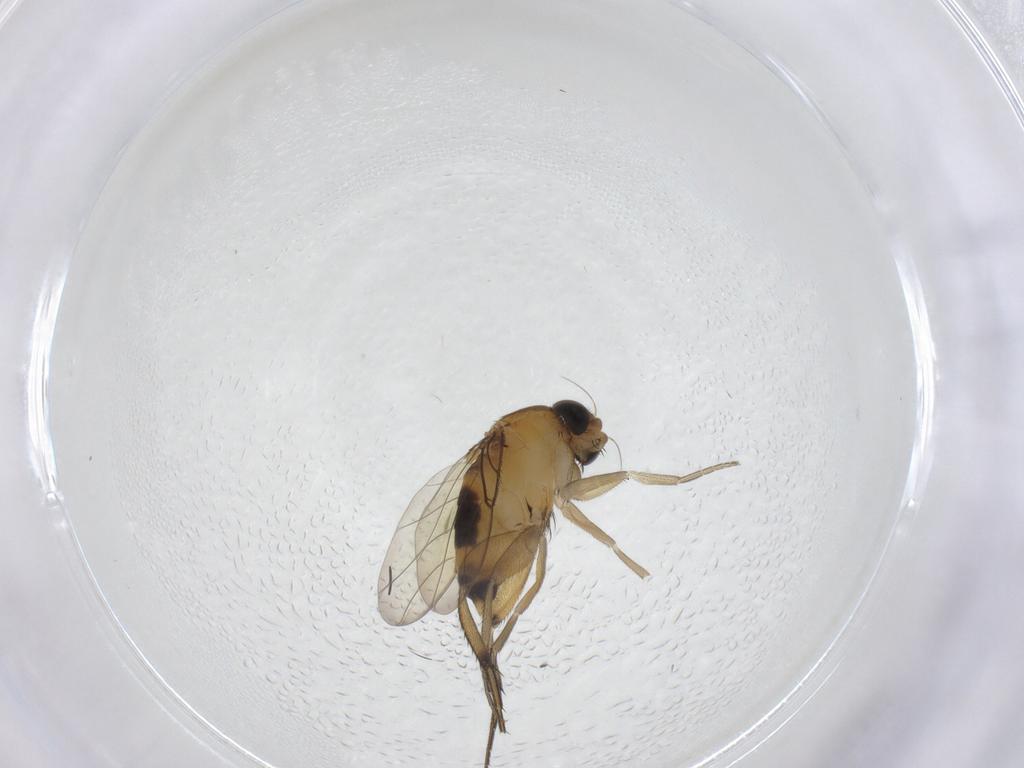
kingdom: Animalia
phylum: Arthropoda
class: Insecta
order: Diptera
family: Phoridae
